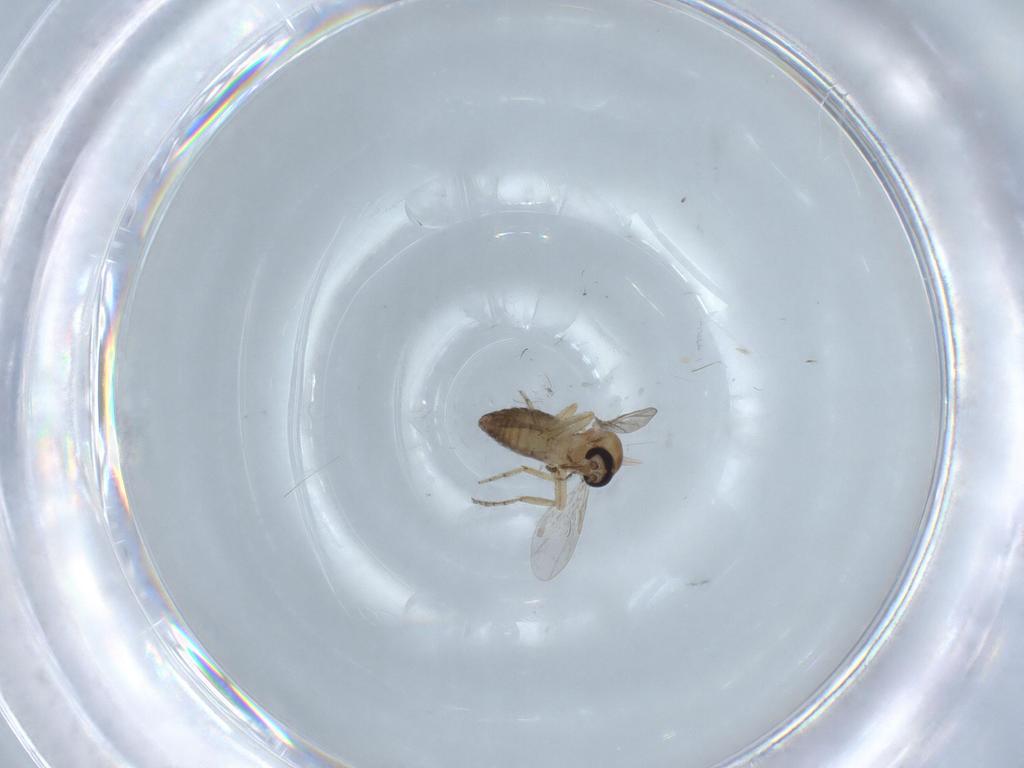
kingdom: Animalia
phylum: Arthropoda
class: Insecta
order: Diptera
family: Ceratopogonidae
